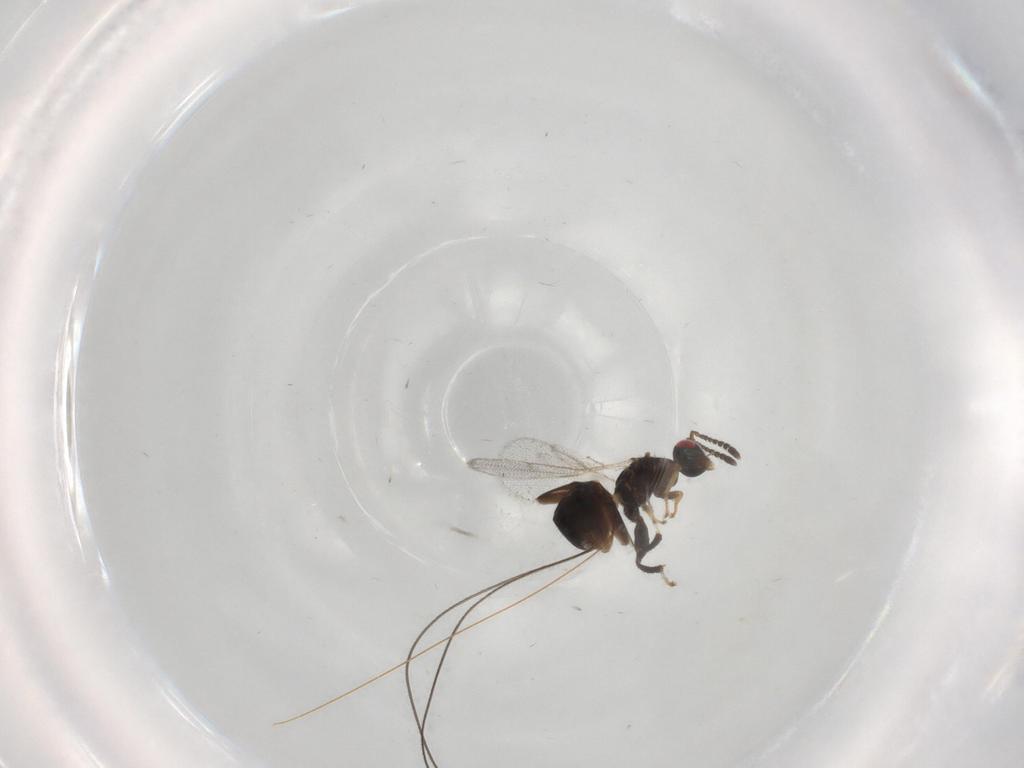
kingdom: Animalia
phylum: Arthropoda
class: Insecta
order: Hymenoptera
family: Torymidae
